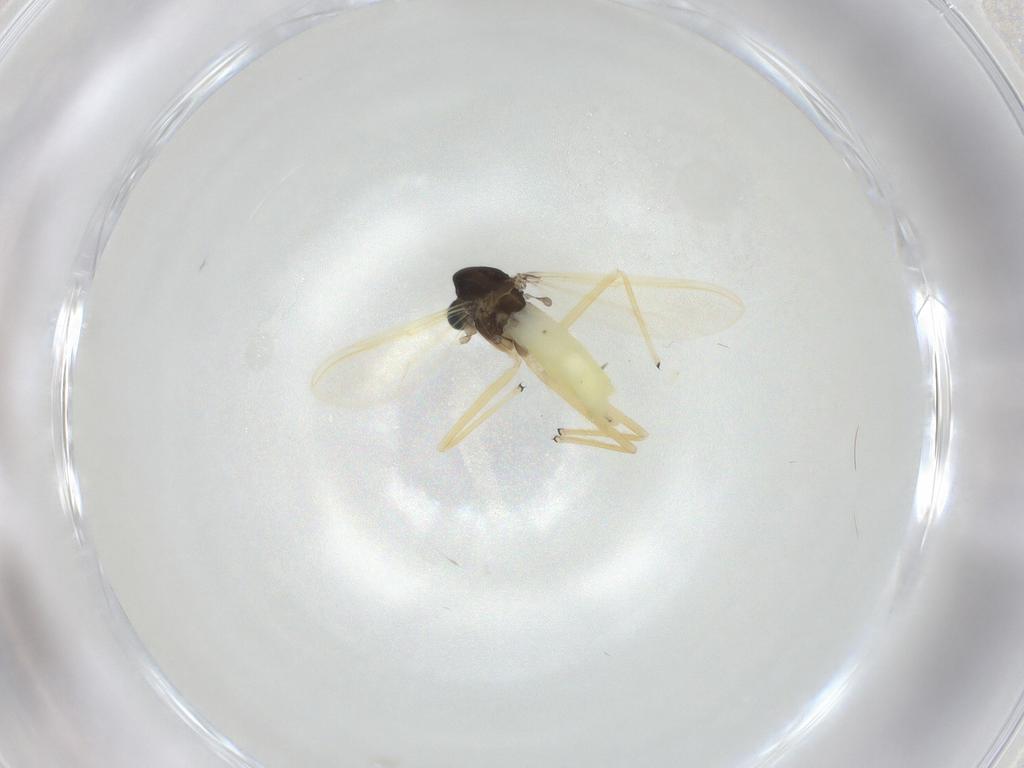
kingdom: Animalia
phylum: Arthropoda
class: Insecta
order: Diptera
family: Chironomidae
